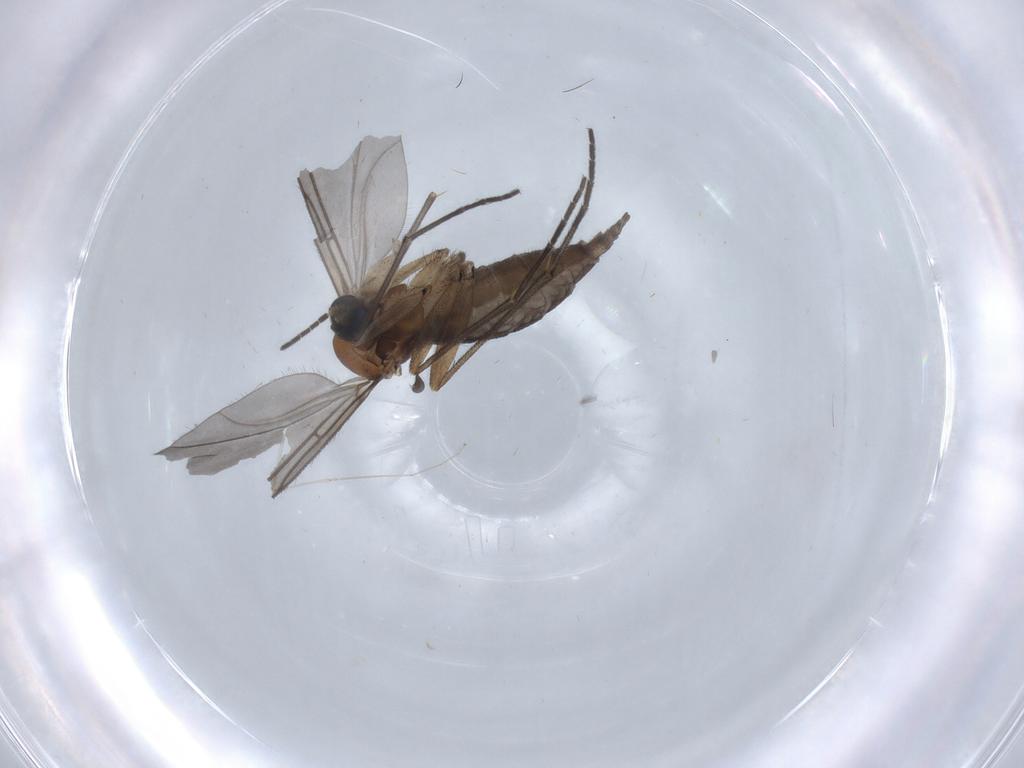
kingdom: Animalia
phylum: Arthropoda
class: Insecta
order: Diptera
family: Sciaridae
